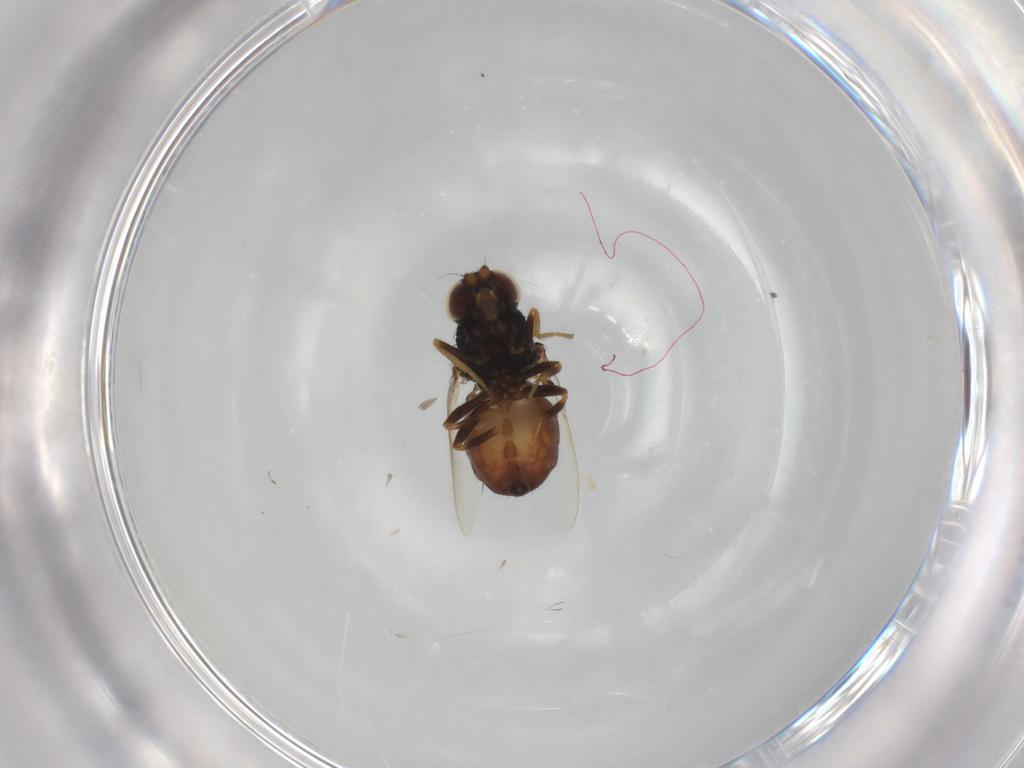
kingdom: Animalia
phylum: Arthropoda
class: Insecta
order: Diptera
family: Chloropidae
